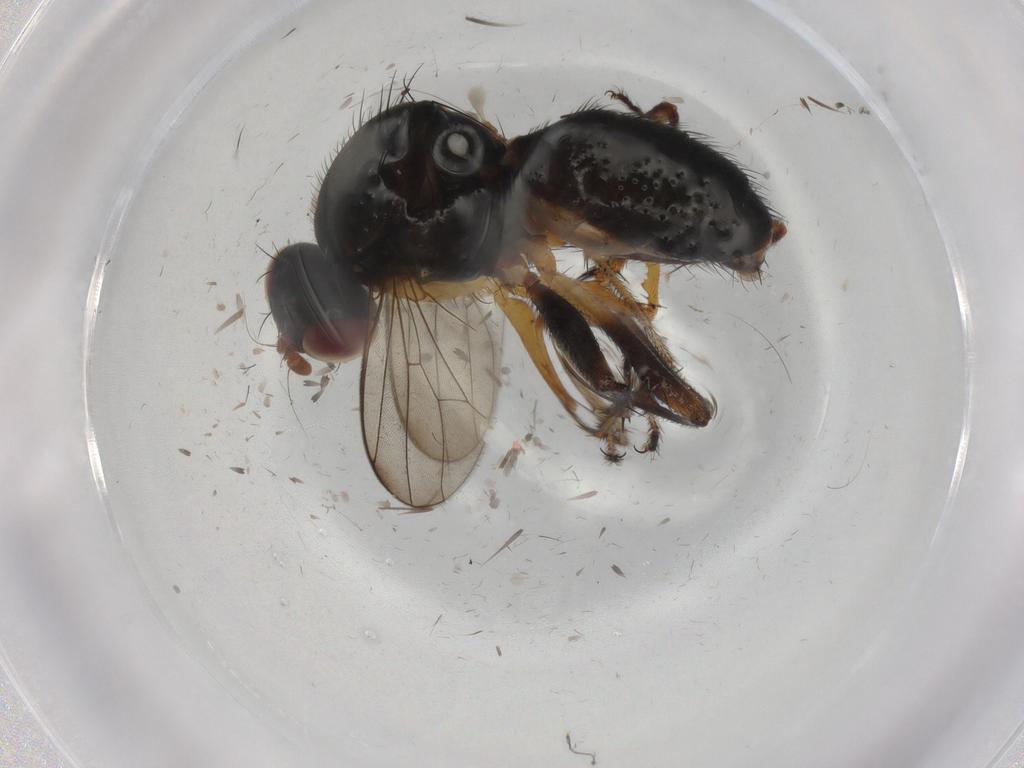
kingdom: Animalia
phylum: Arthropoda
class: Insecta
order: Diptera
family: Sepsidae
